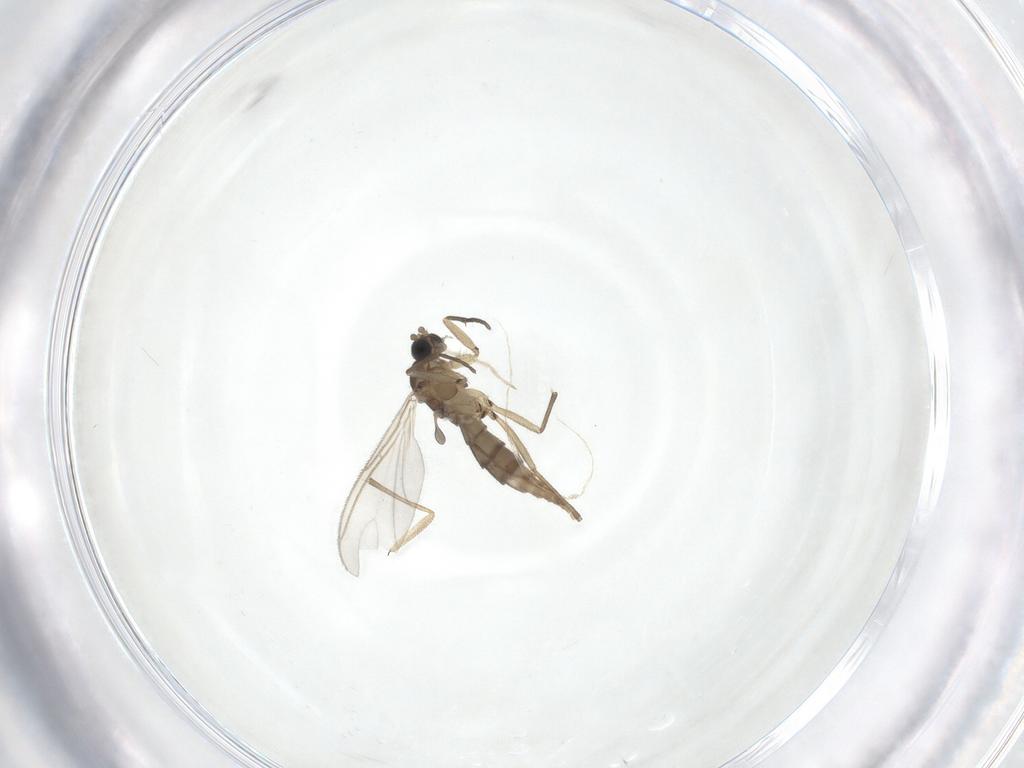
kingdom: Animalia
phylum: Arthropoda
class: Insecta
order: Diptera
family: Sciaridae
